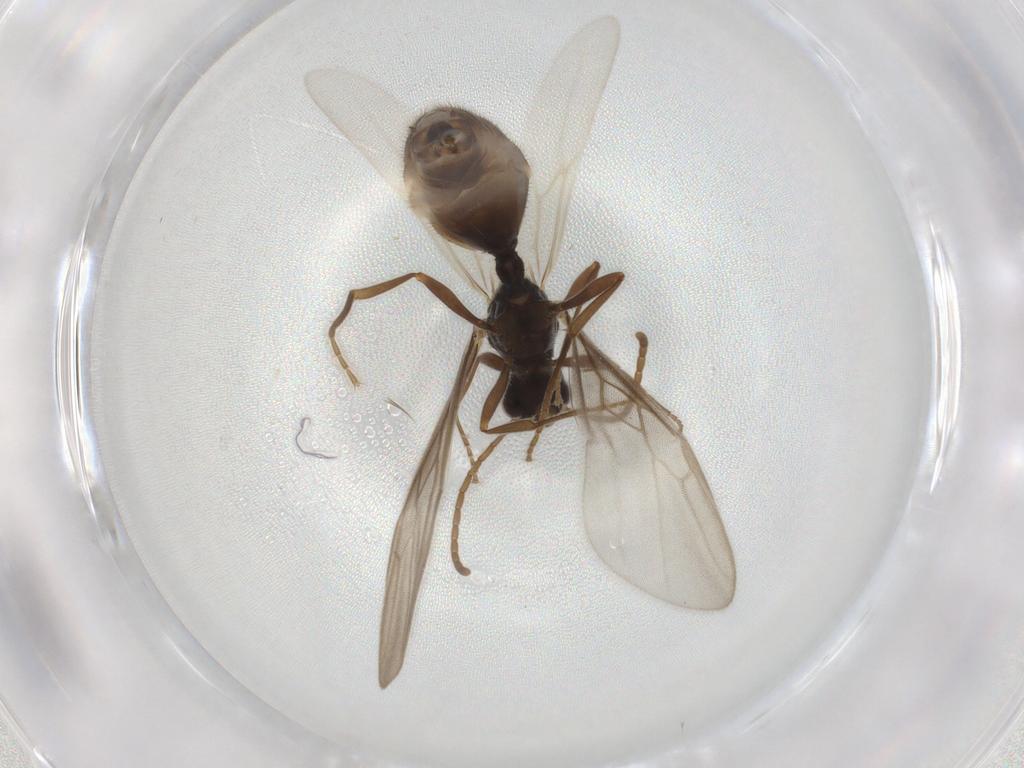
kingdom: Animalia
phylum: Arthropoda
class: Insecta
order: Hymenoptera
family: Formicidae
